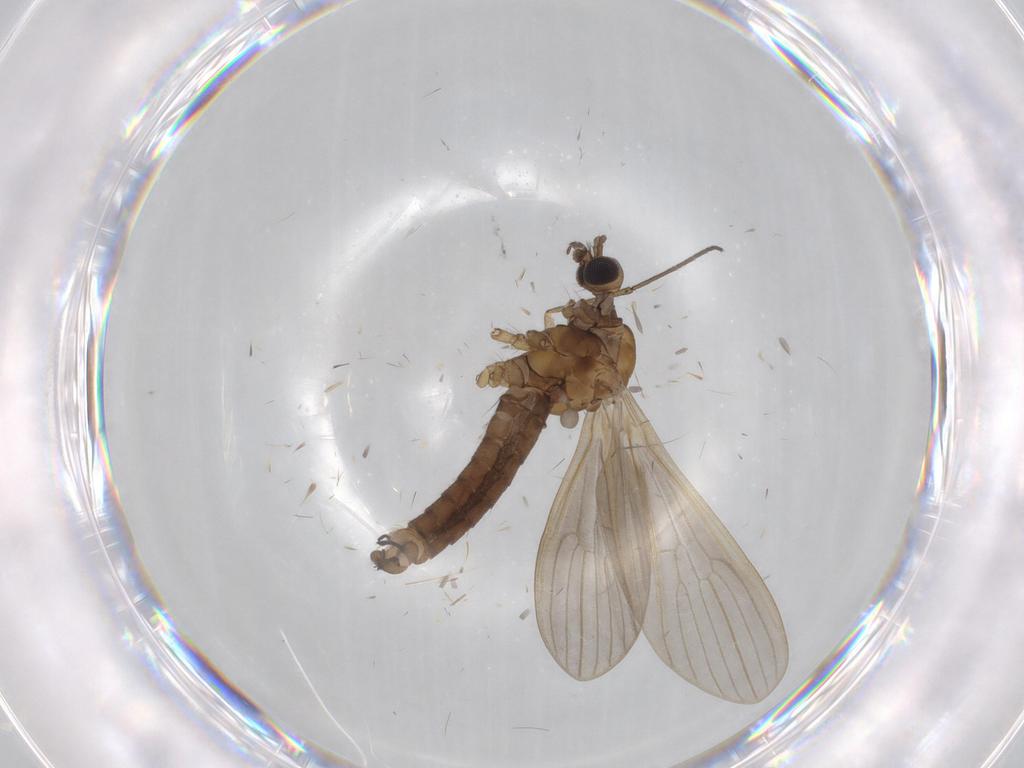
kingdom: Animalia
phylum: Arthropoda
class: Insecta
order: Diptera
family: Limoniidae
